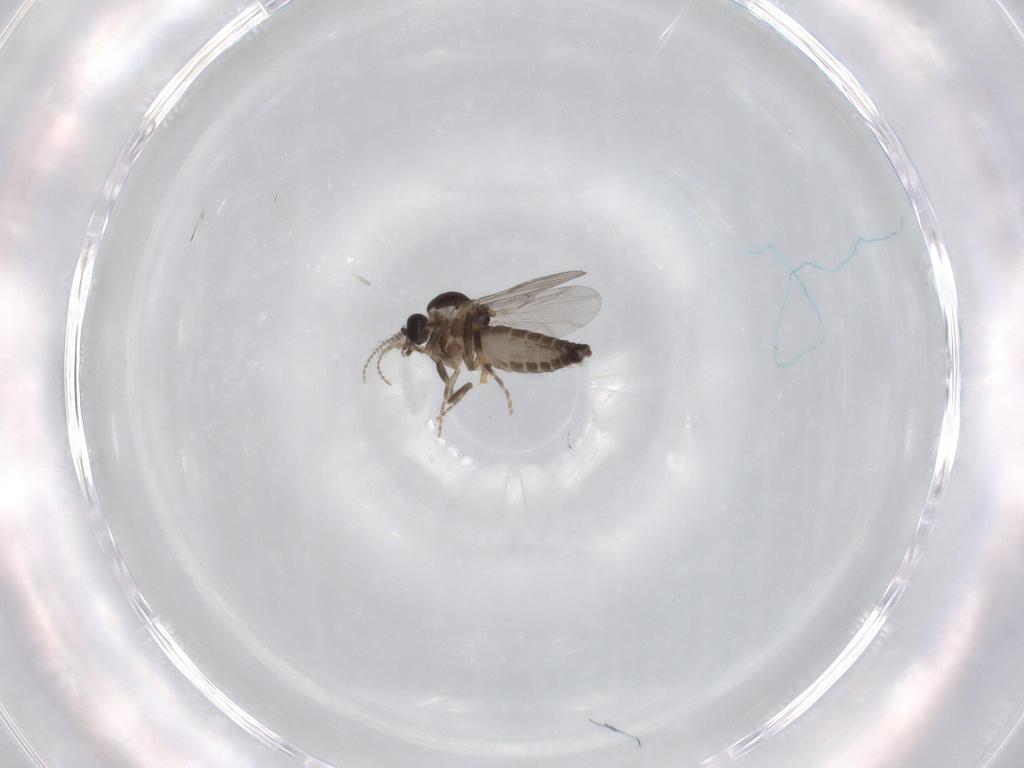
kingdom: Animalia
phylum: Arthropoda
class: Insecta
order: Diptera
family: Ceratopogonidae
